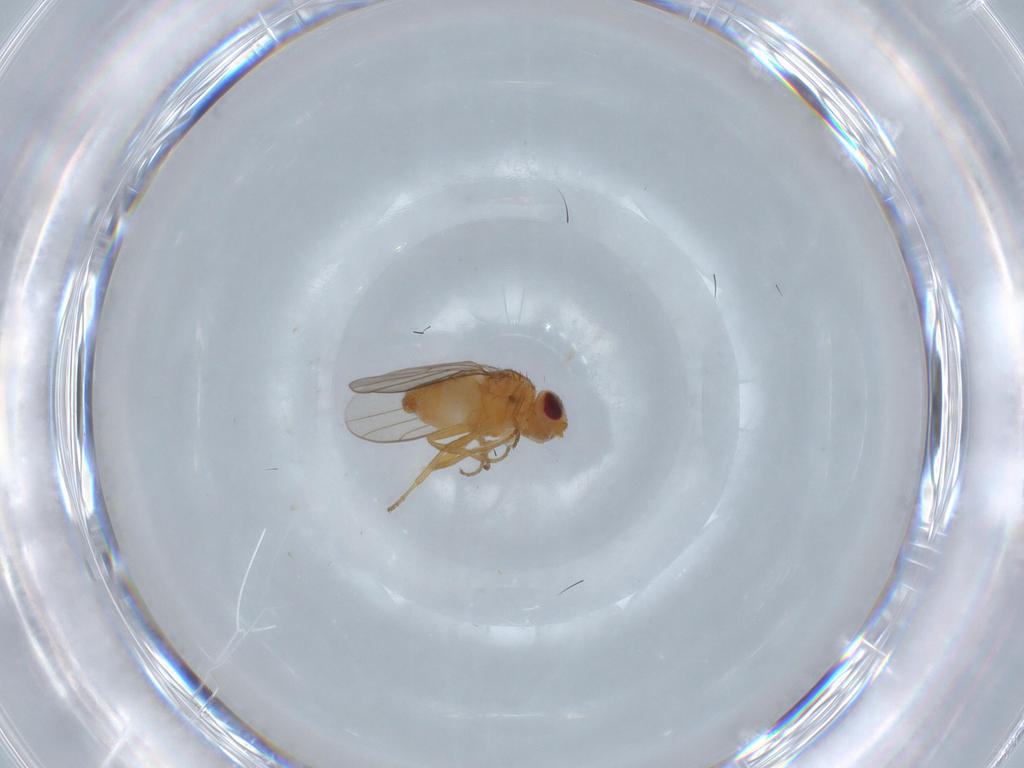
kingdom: Animalia
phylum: Arthropoda
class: Insecta
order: Diptera
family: Chloropidae
